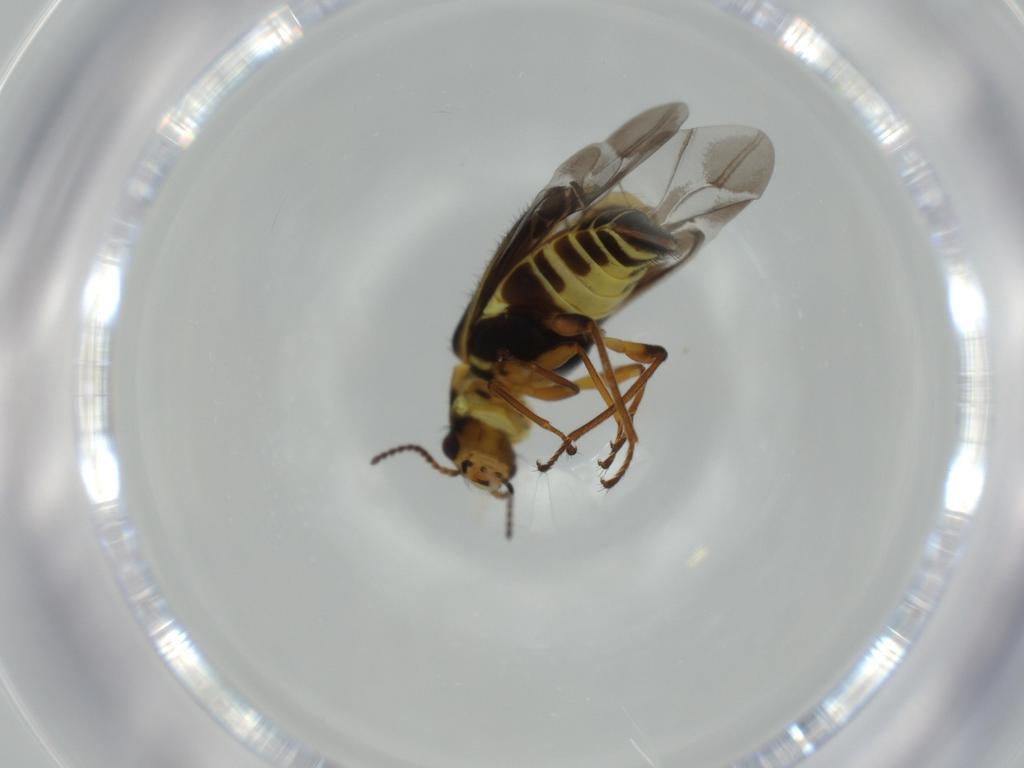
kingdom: Animalia
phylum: Arthropoda
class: Insecta
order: Coleoptera
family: Melyridae
